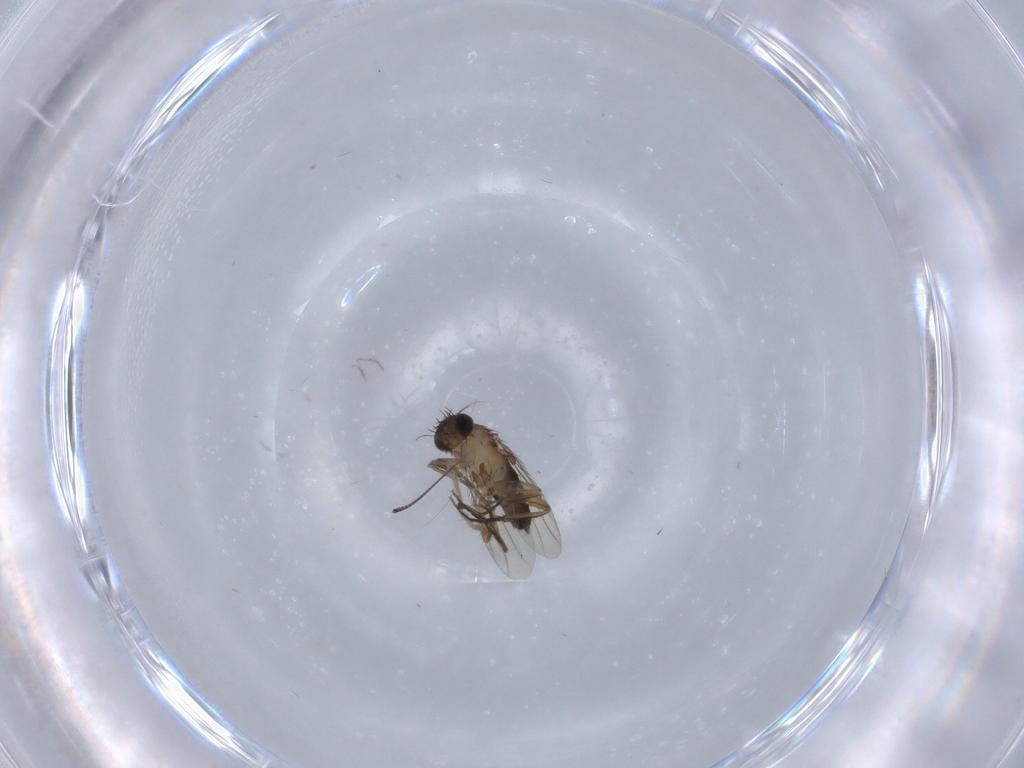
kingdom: Animalia
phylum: Arthropoda
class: Insecta
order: Diptera
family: Phoridae
